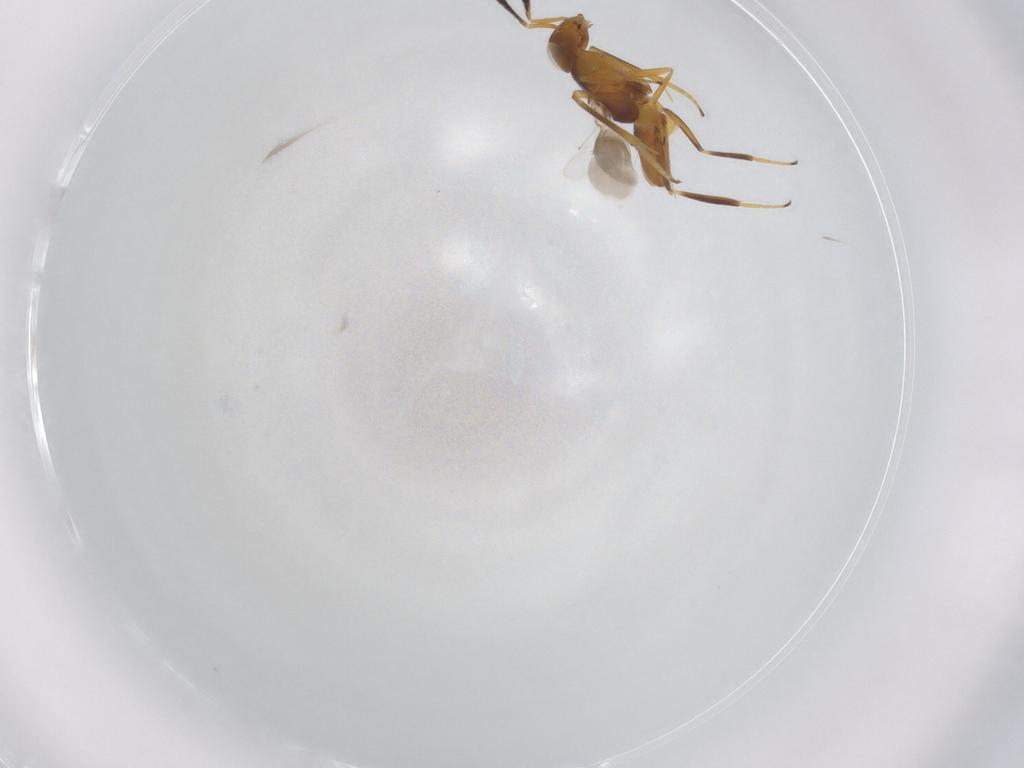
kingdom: Animalia
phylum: Arthropoda
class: Insecta
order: Hymenoptera
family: Encyrtidae
